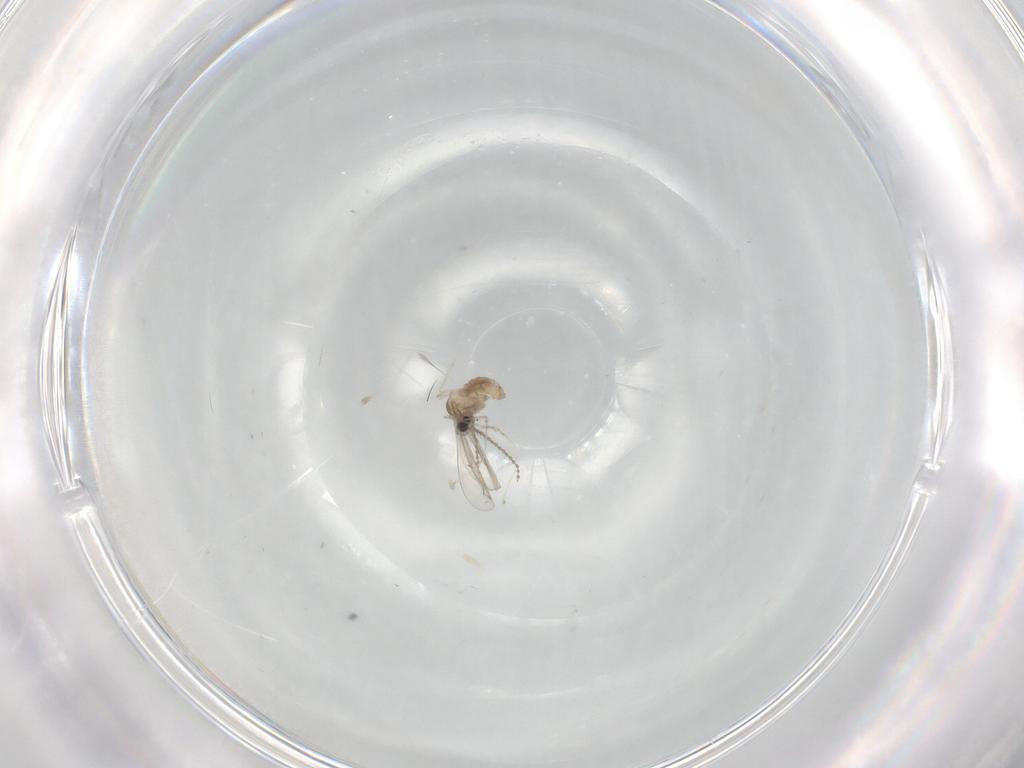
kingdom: Animalia
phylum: Arthropoda
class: Insecta
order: Diptera
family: Cecidomyiidae
